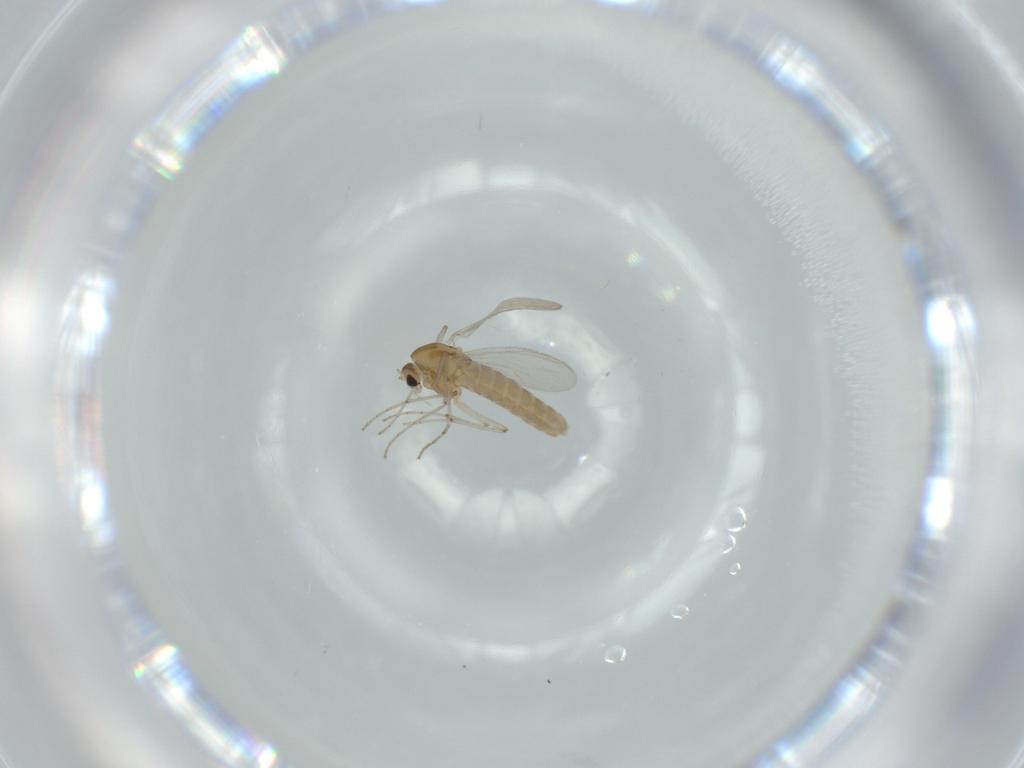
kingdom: Animalia
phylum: Arthropoda
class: Insecta
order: Diptera
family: Chironomidae
